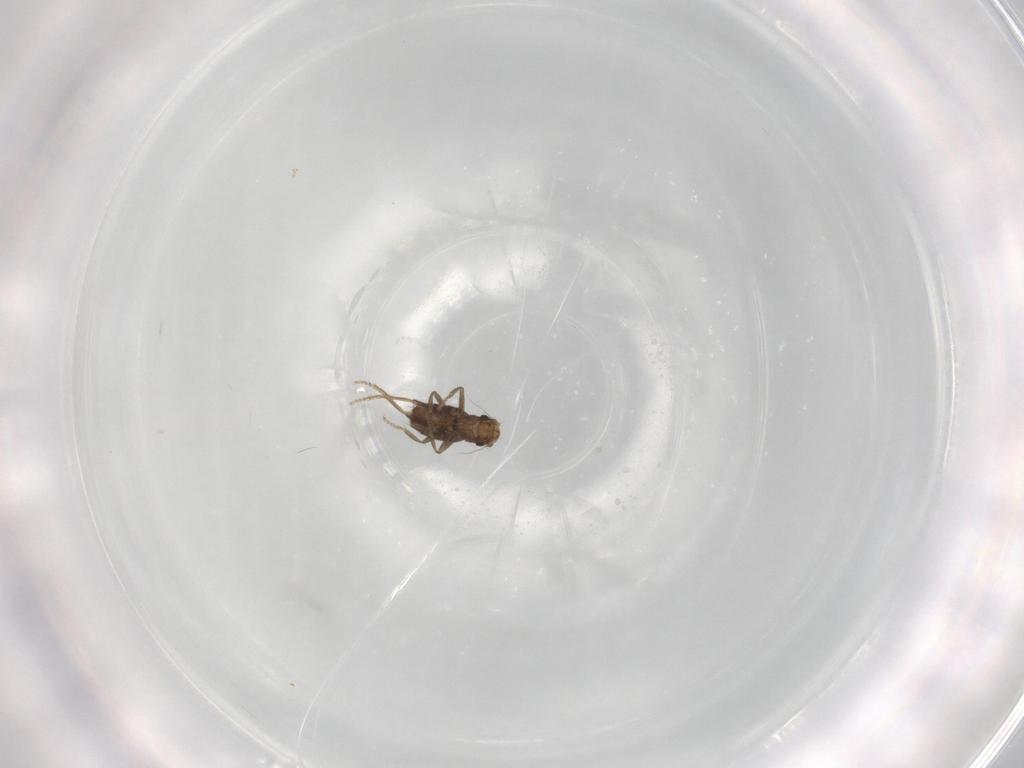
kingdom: Animalia
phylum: Arthropoda
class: Insecta
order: Diptera
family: Cecidomyiidae
